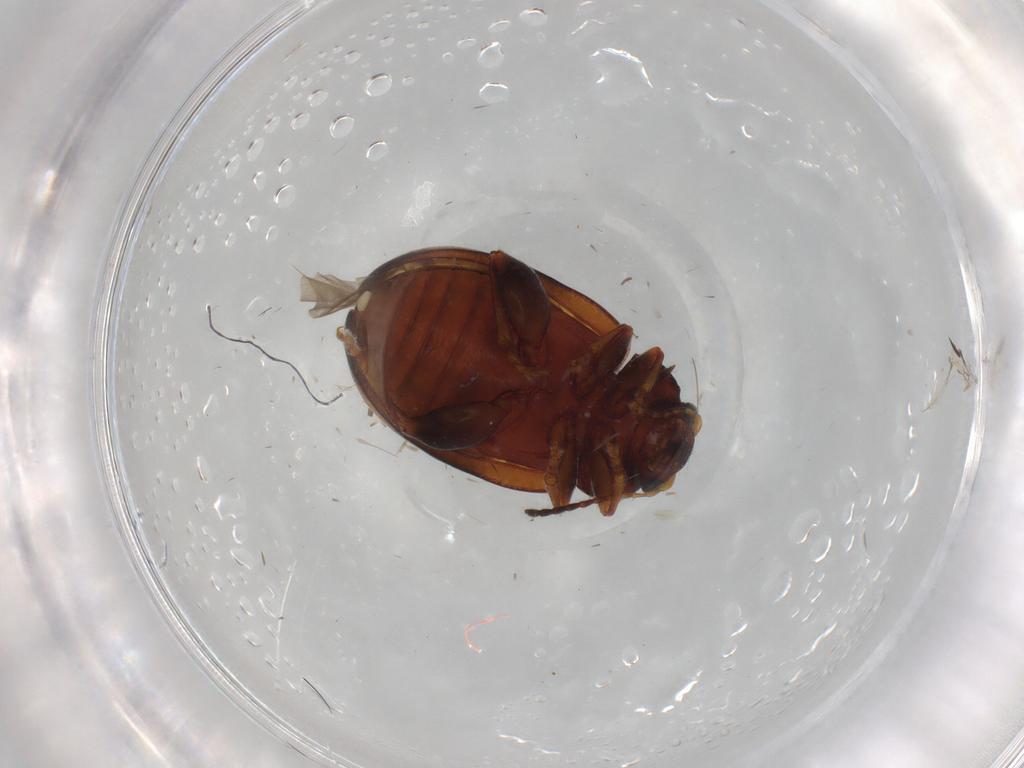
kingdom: Animalia
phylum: Arthropoda
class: Insecta
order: Coleoptera
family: Chrysomelidae
